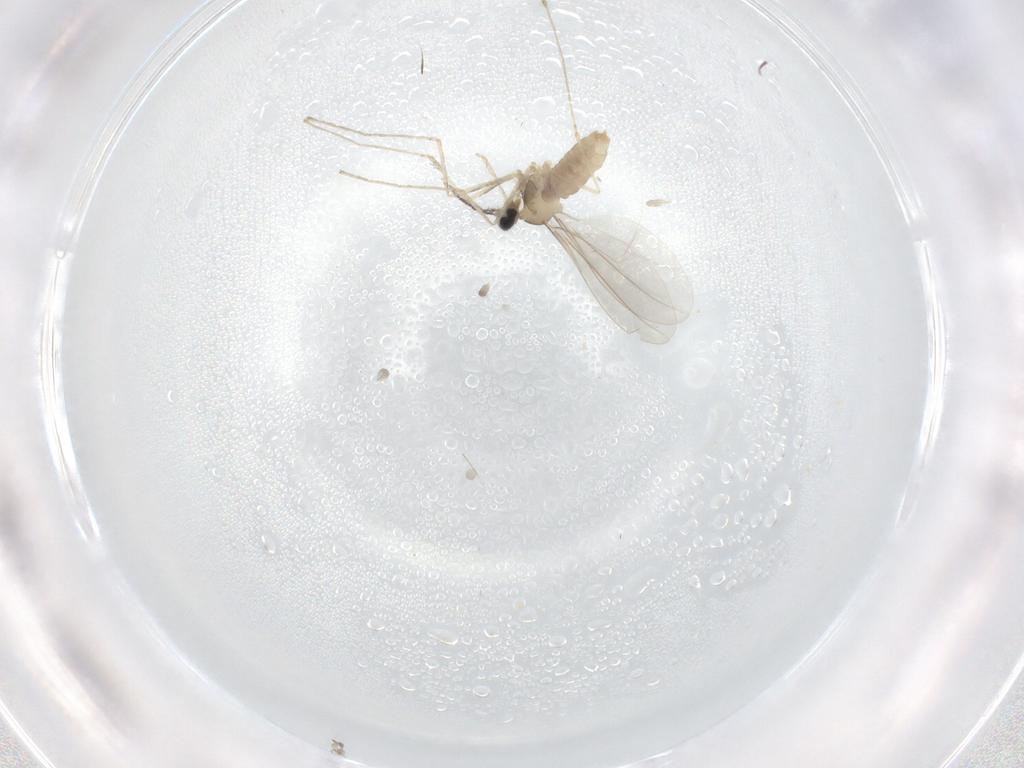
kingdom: Animalia
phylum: Arthropoda
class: Insecta
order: Diptera
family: Cecidomyiidae
